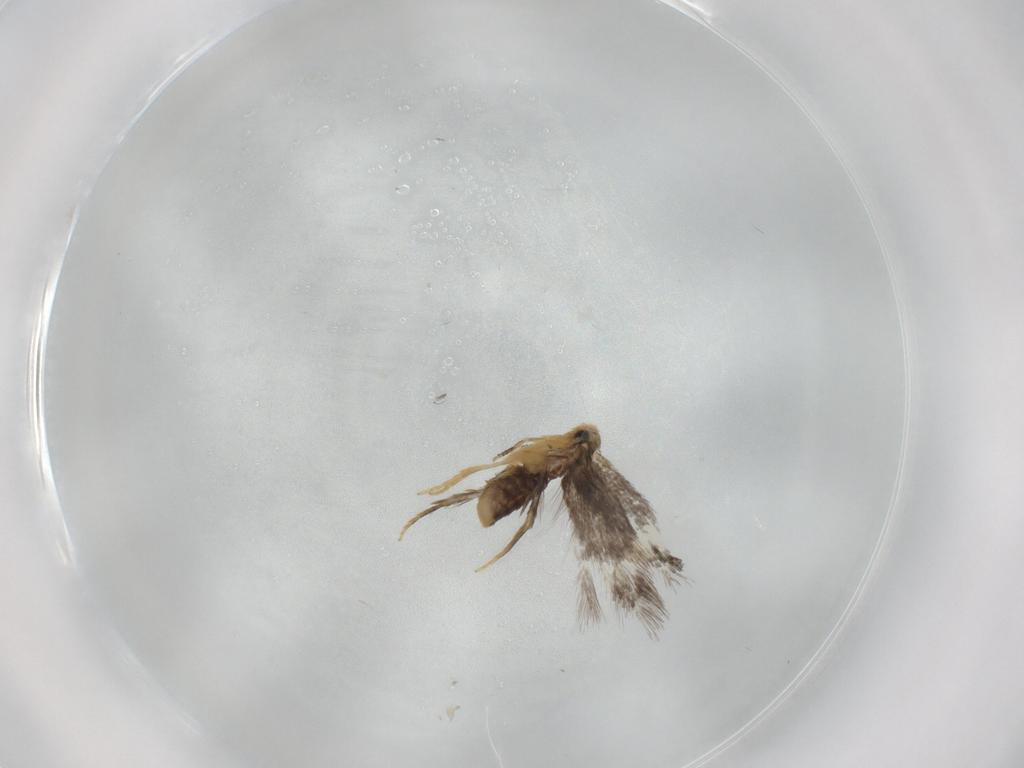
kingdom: Animalia
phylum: Arthropoda
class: Insecta
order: Lepidoptera
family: Nepticulidae
